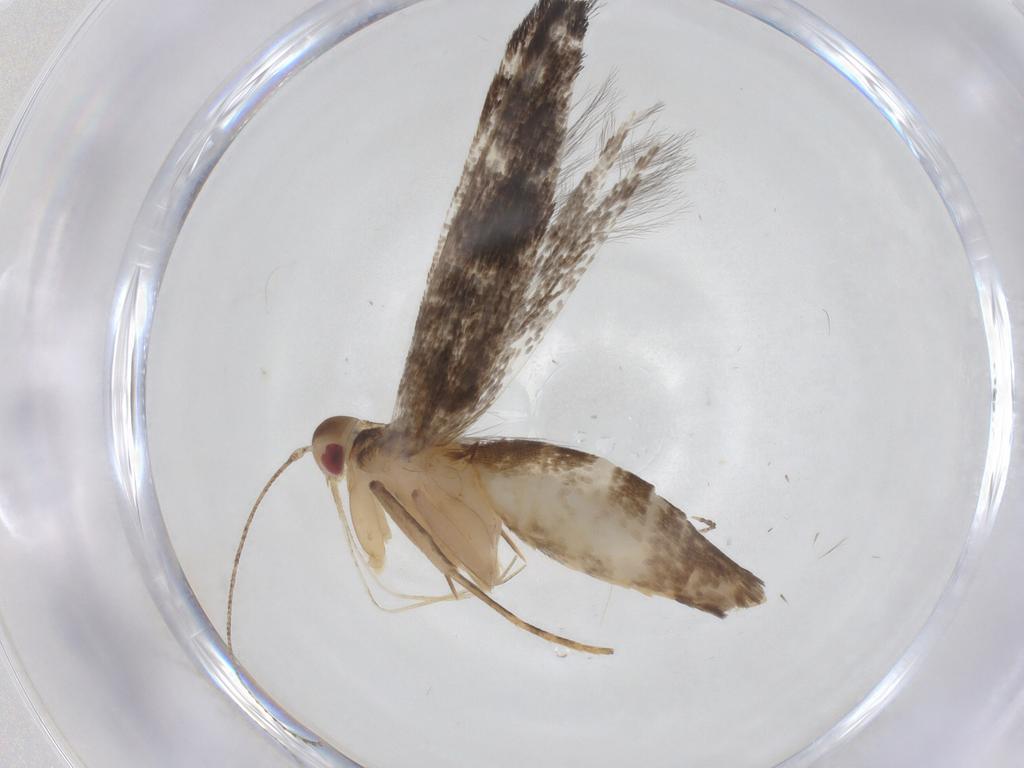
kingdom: Animalia
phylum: Arthropoda
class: Insecta
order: Lepidoptera
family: Cosmopterigidae
